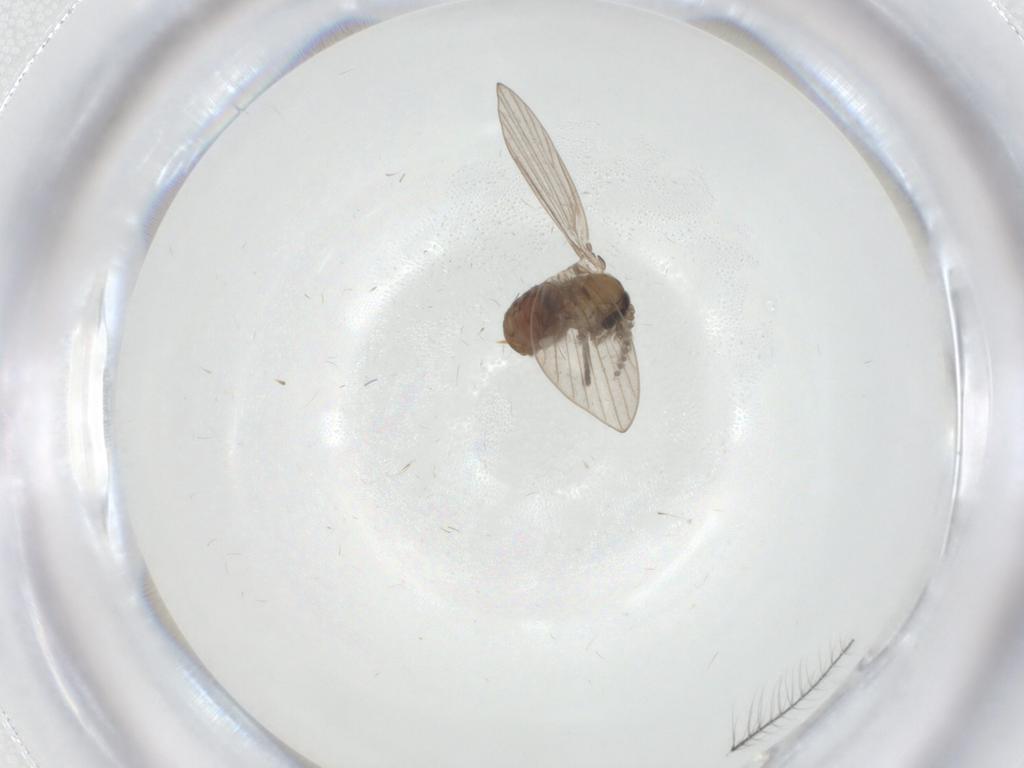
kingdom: Animalia
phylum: Arthropoda
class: Insecta
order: Diptera
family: Psychodidae
